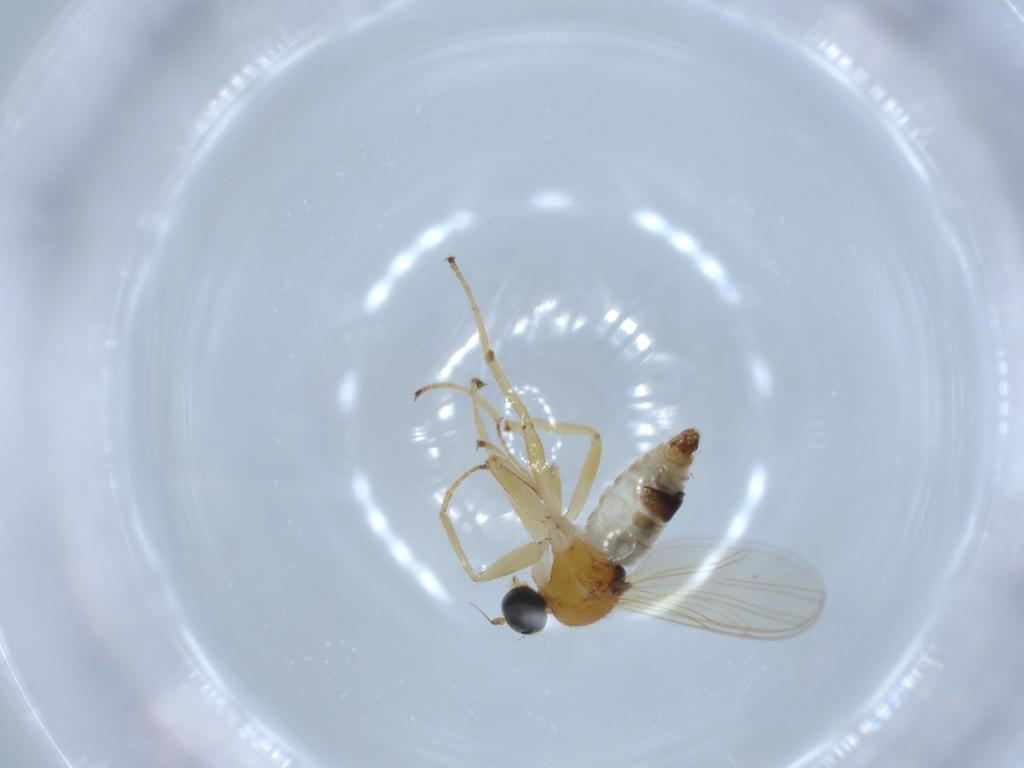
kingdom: Animalia
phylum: Arthropoda
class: Insecta
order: Diptera
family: Hybotidae
